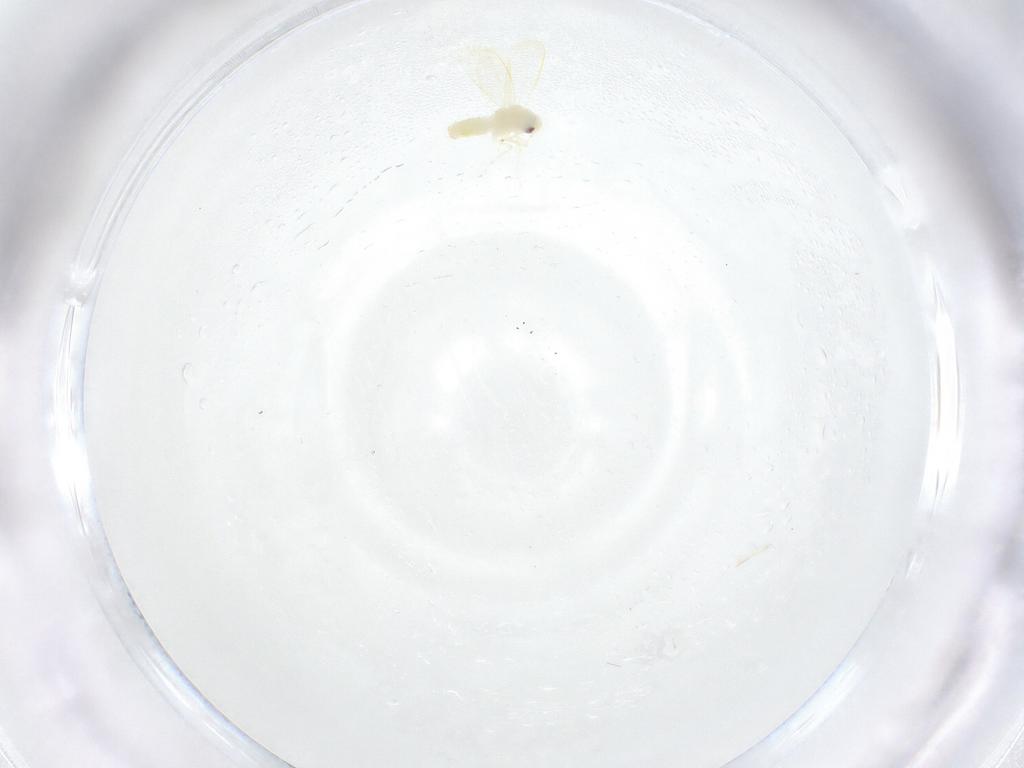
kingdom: Animalia
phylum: Arthropoda
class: Insecta
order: Hemiptera
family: Aleyrodidae
